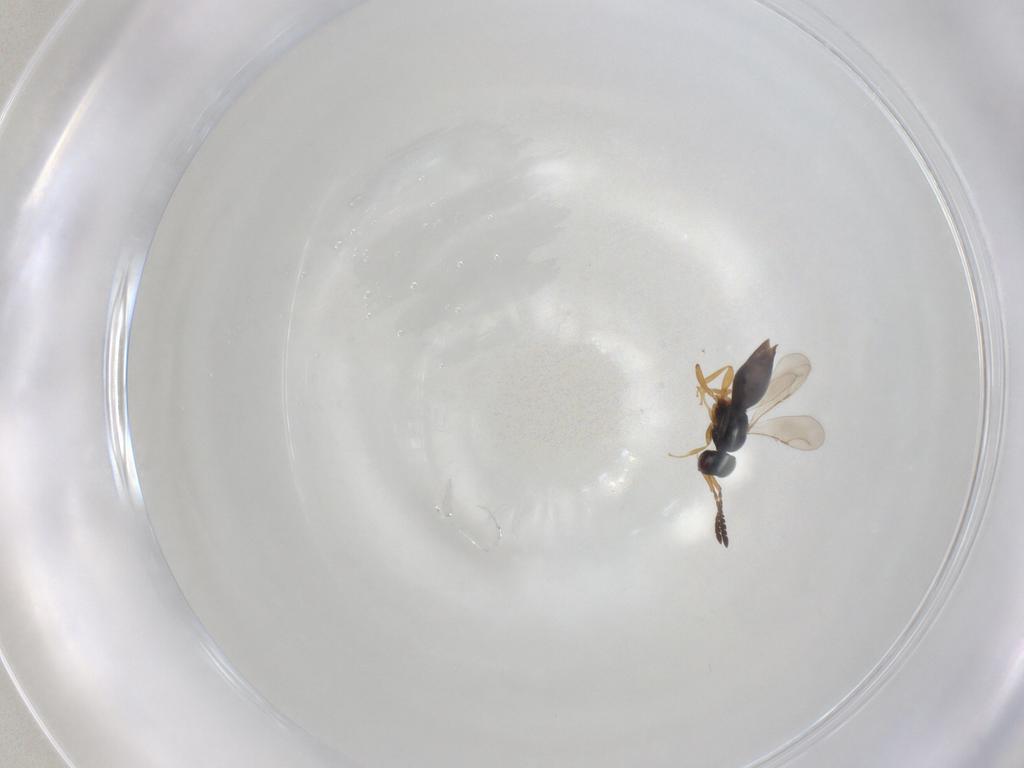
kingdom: Animalia
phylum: Arthropoda
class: Insecta
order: Hymenoptera
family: Ceraphronidae
